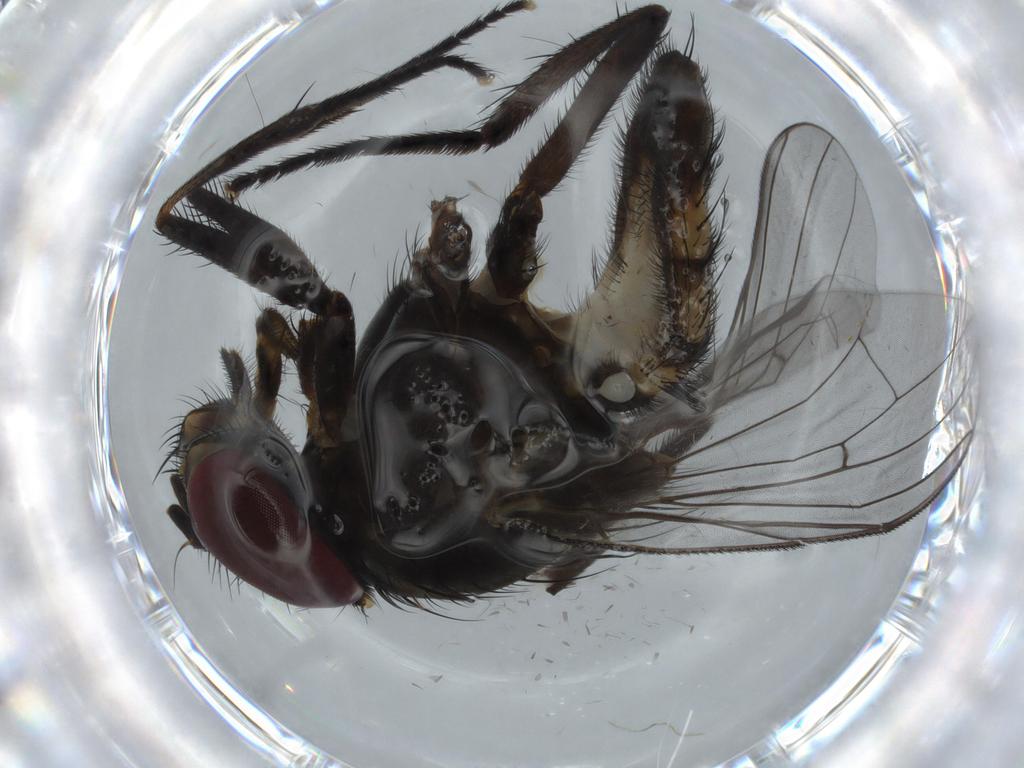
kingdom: Animalia
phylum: Arthropoda
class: Insecta
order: Diptera
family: Fannia
